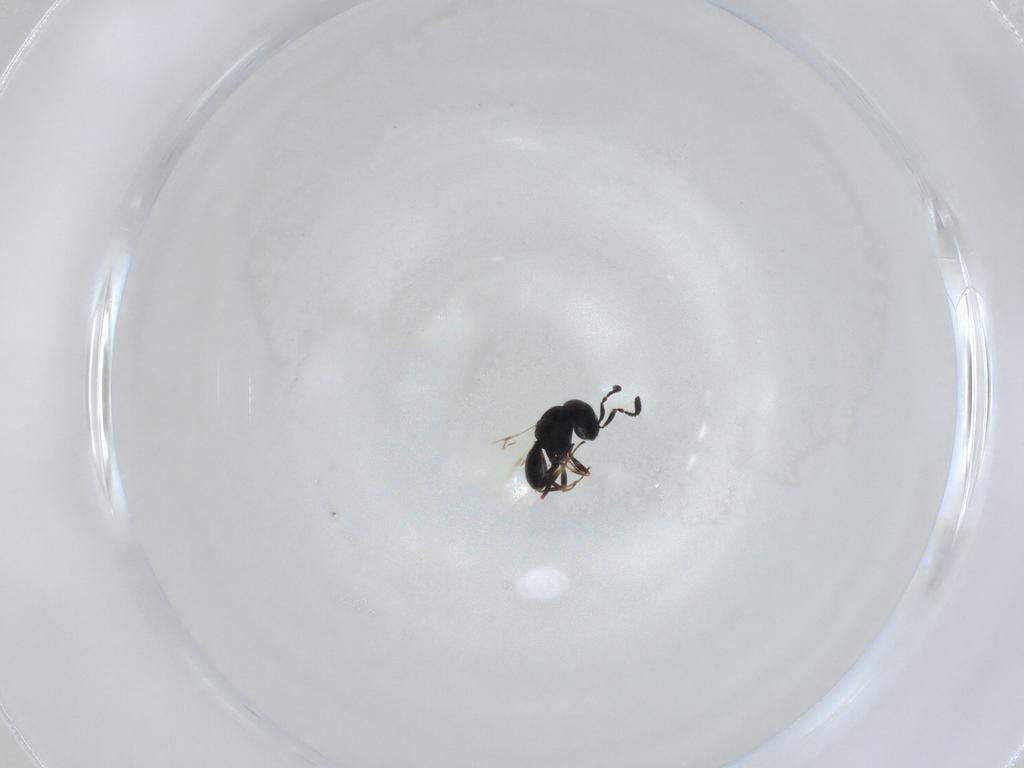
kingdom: Animalia
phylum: Arthropoda
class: Insecta
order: Hymenoptera
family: Scelionidae
